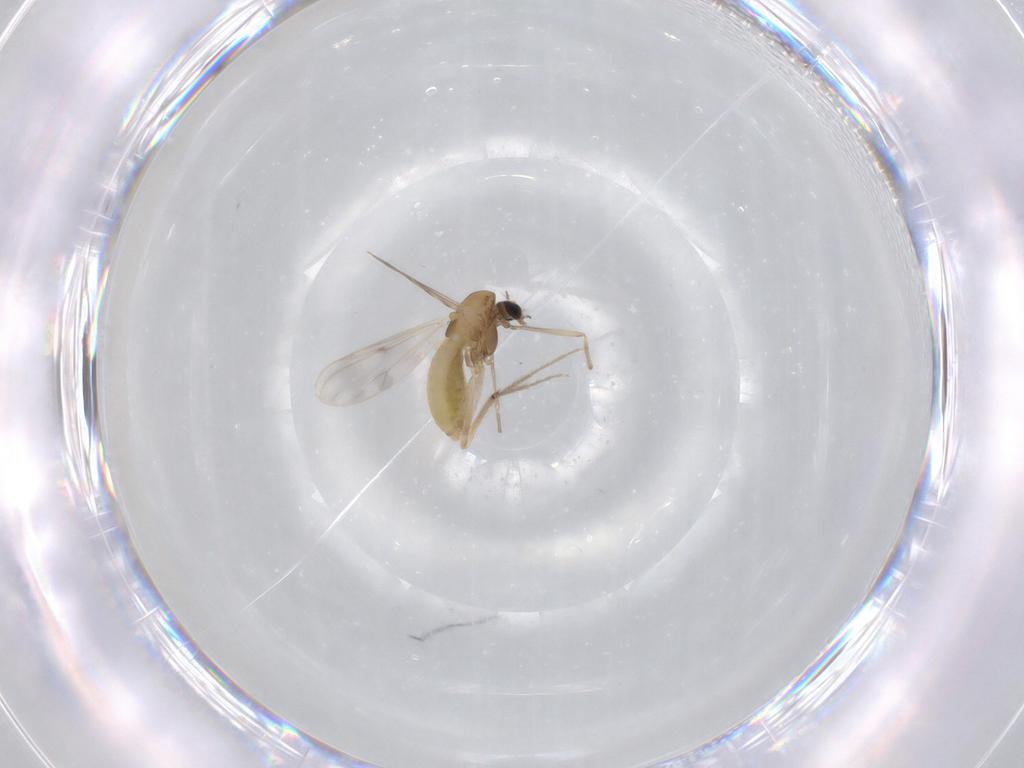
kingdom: Animalia
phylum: Arthropoda
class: Insecta
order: Diptera
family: Chironomidae
